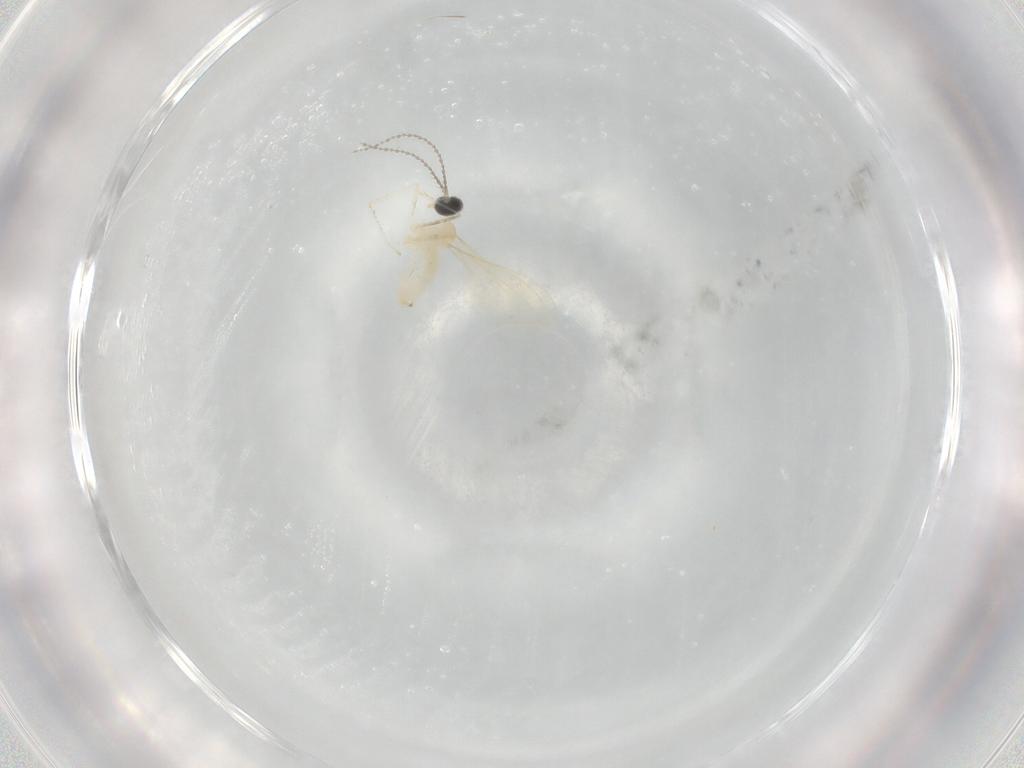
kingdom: Animalia
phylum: Arthropoda
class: Insecta
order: Diptera
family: Cecidomyiidae
